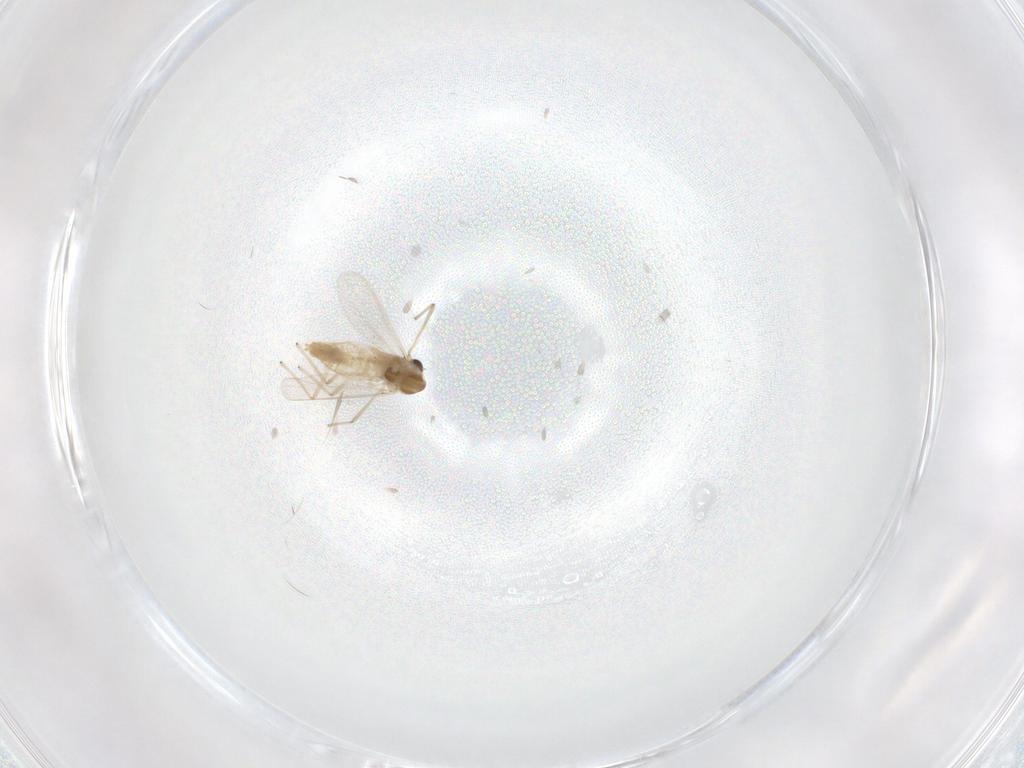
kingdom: Animalia
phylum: Arthropoda
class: Insecta
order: Diptera
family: Chironomidae
